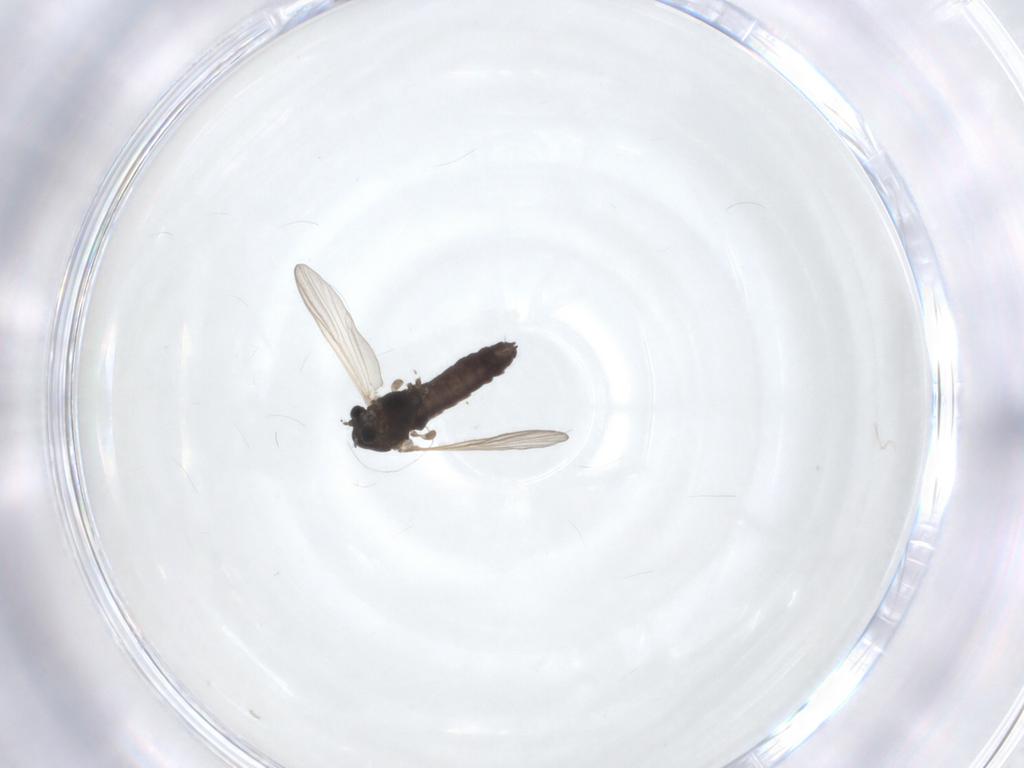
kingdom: Animalia
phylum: Arthropoda
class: Insecta
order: Diptera
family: Chironomidae
